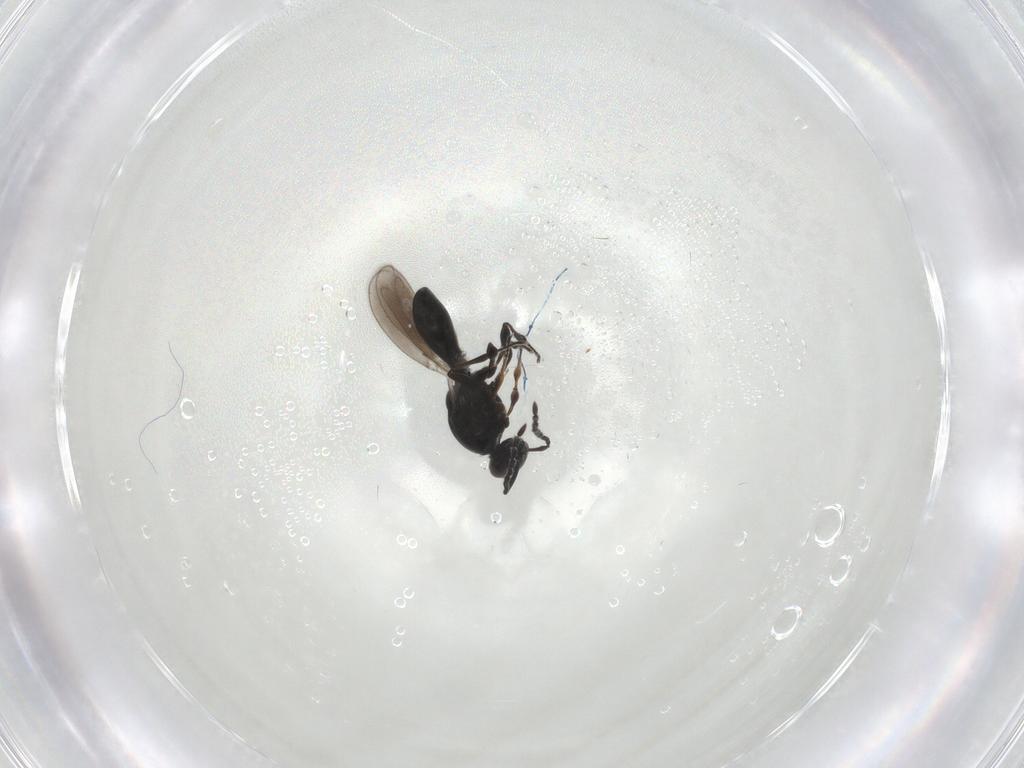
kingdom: Animalia
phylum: Arthropoda
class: Insecta
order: Hymenoptera
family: Platygastridae
